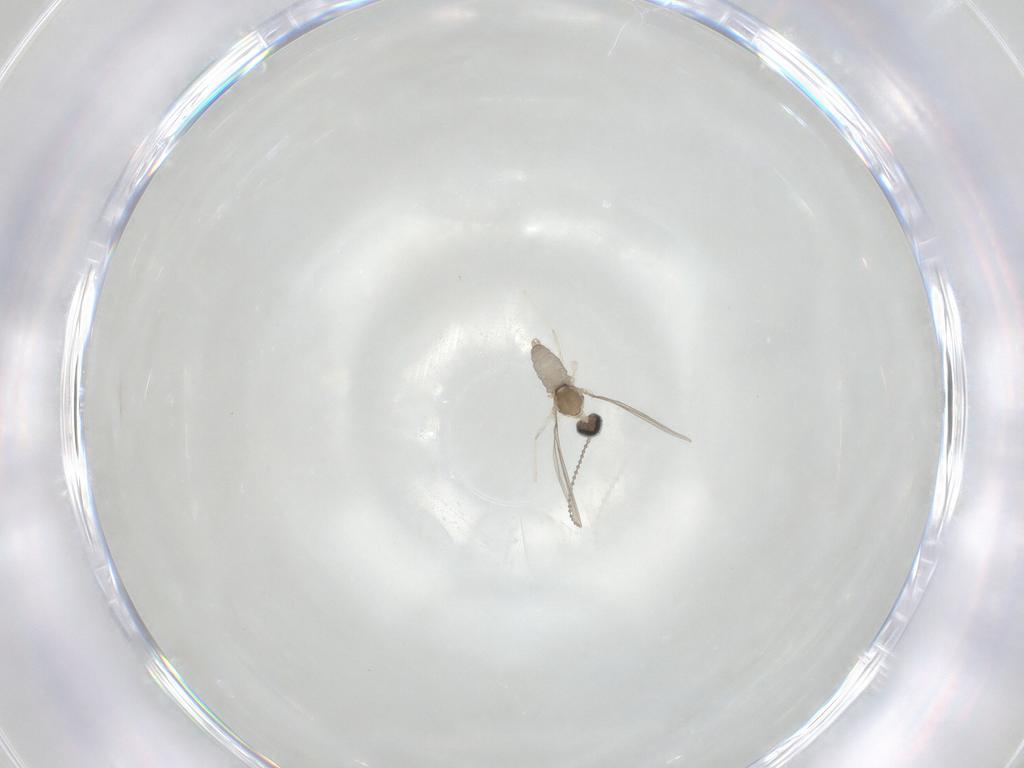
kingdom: Animalia
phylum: Arthropoda
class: Insecta
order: Diptera
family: Cecidomyiidae
